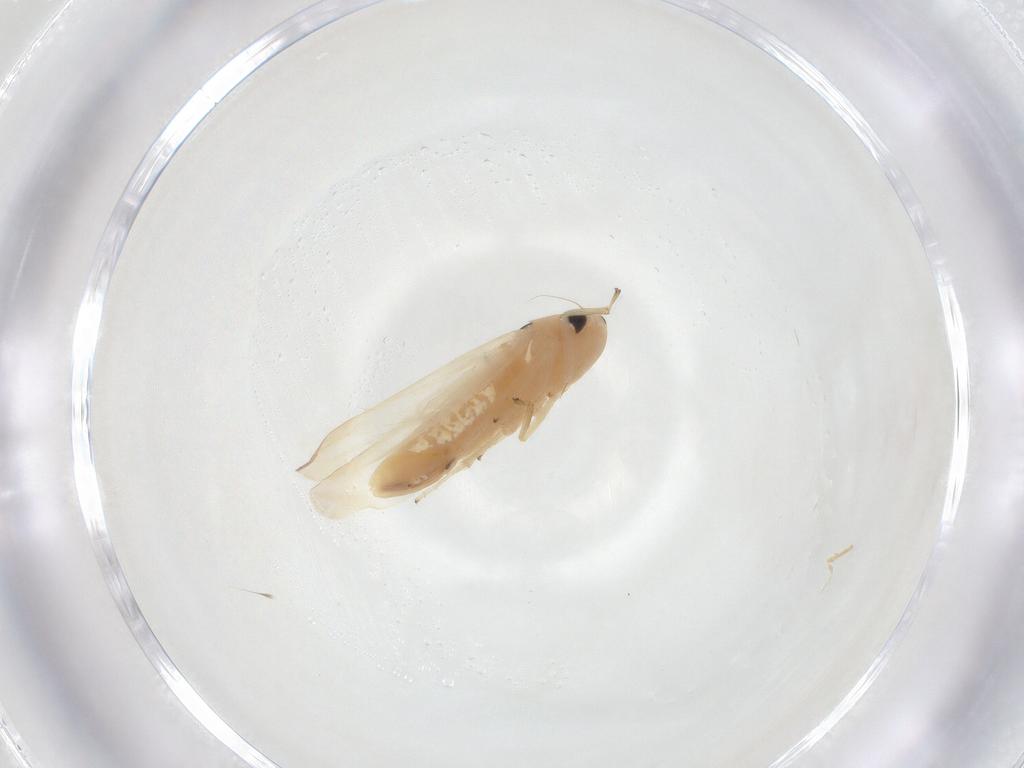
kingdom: Animalia
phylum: Arthropoda
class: Insecta
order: Hemiptera
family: Cicadellidae
